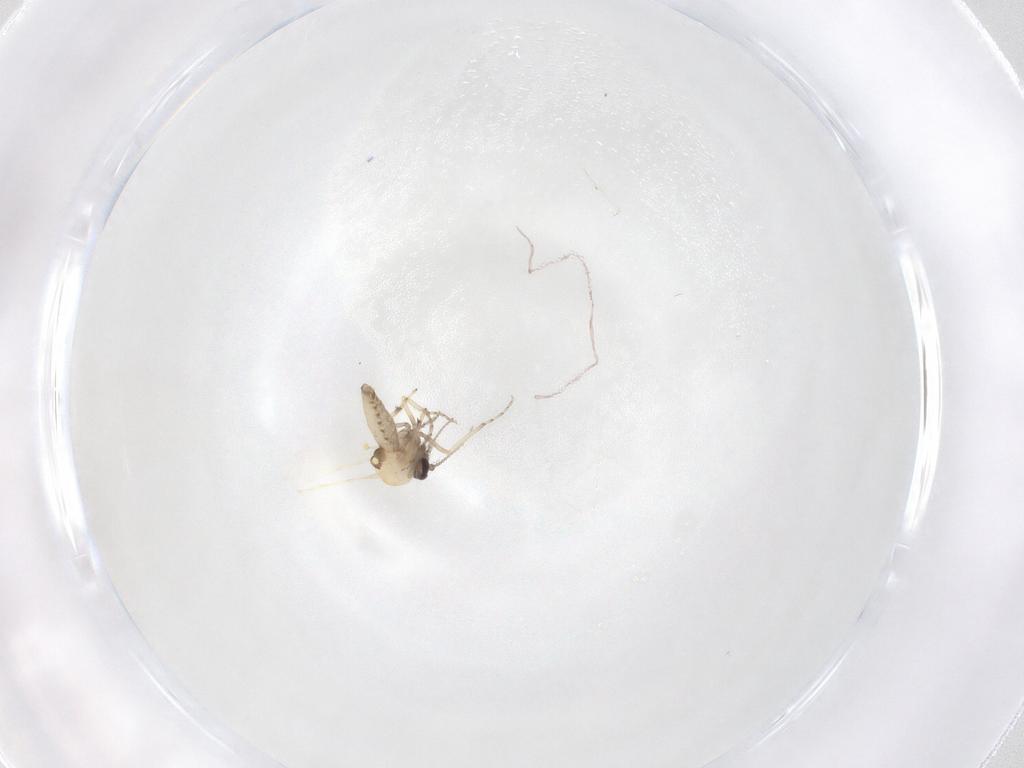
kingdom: Animalia
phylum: Arthropoda
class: Insecta
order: Diptera
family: Ceratopogonidae
